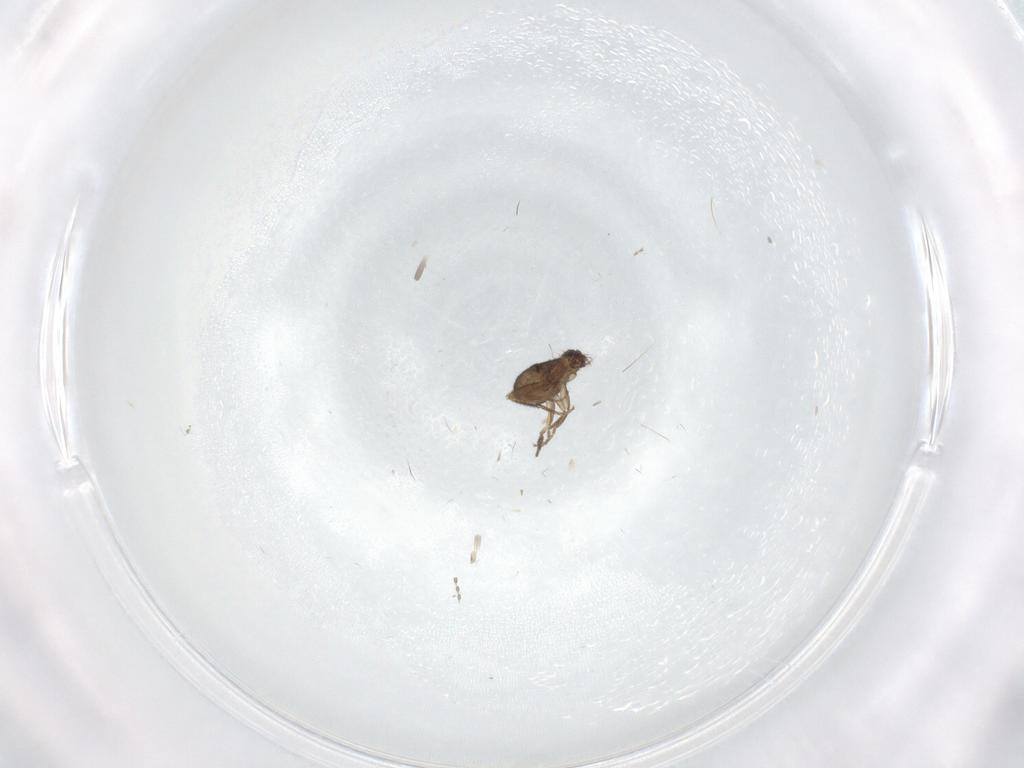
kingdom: Animalia
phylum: Arthropoda
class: Insecta
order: Diptera
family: Phoridae
